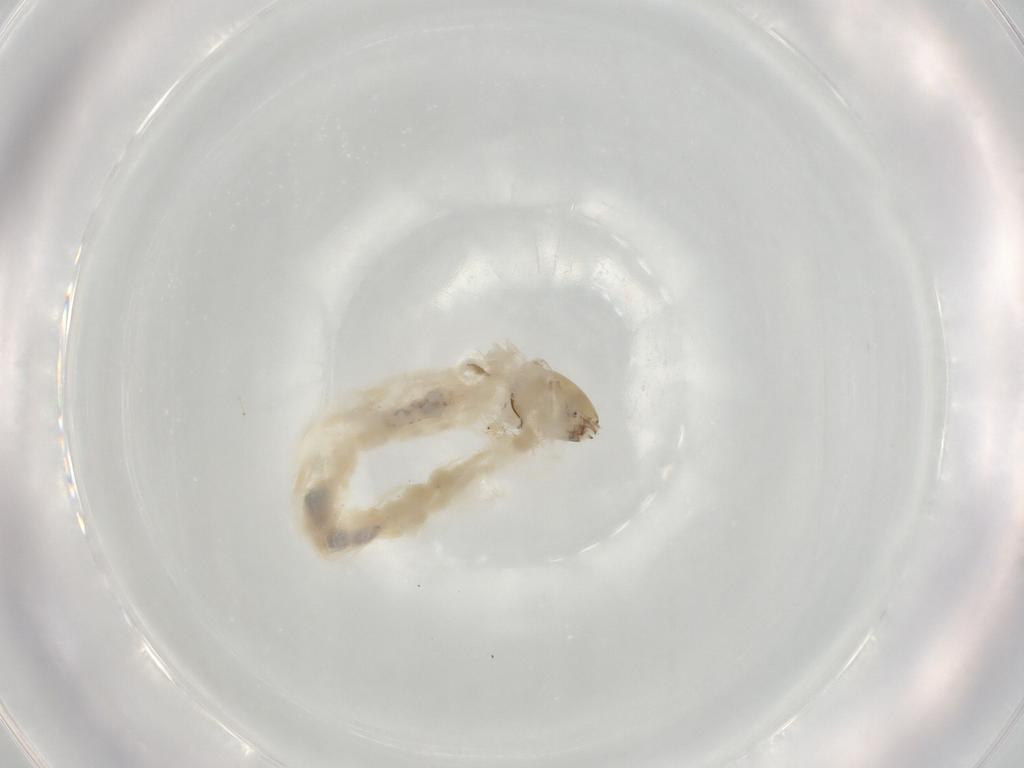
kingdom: Animalia
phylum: Arthropoda
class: Insecta
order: Diptera
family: Chironomidae
